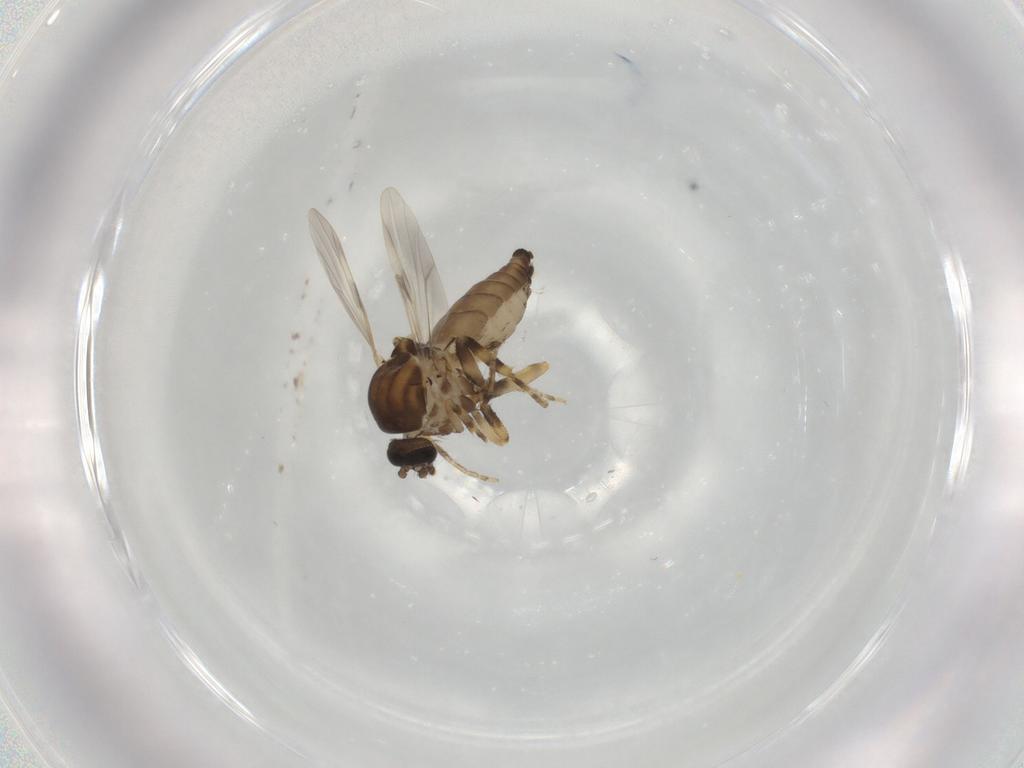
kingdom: Animalia
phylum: Arthropoda
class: Insecta
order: Diptera
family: Ceratopogonidae
